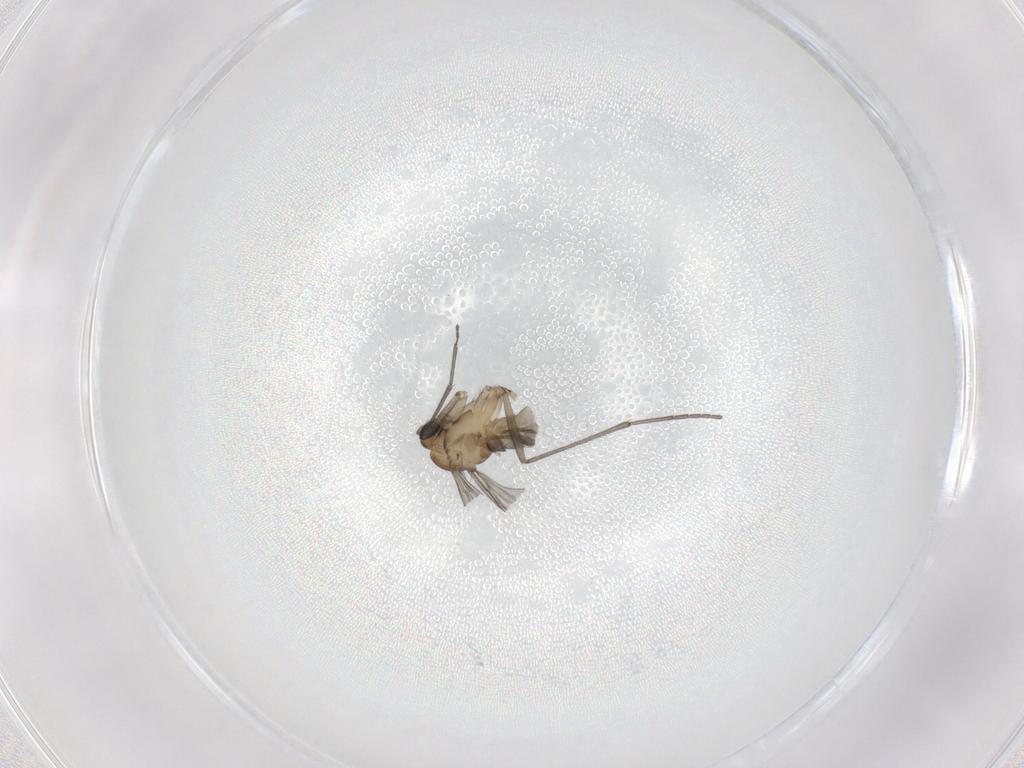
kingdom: Animalia
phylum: Arthropoda
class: Insecta
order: Diptera
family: Sciaridae
